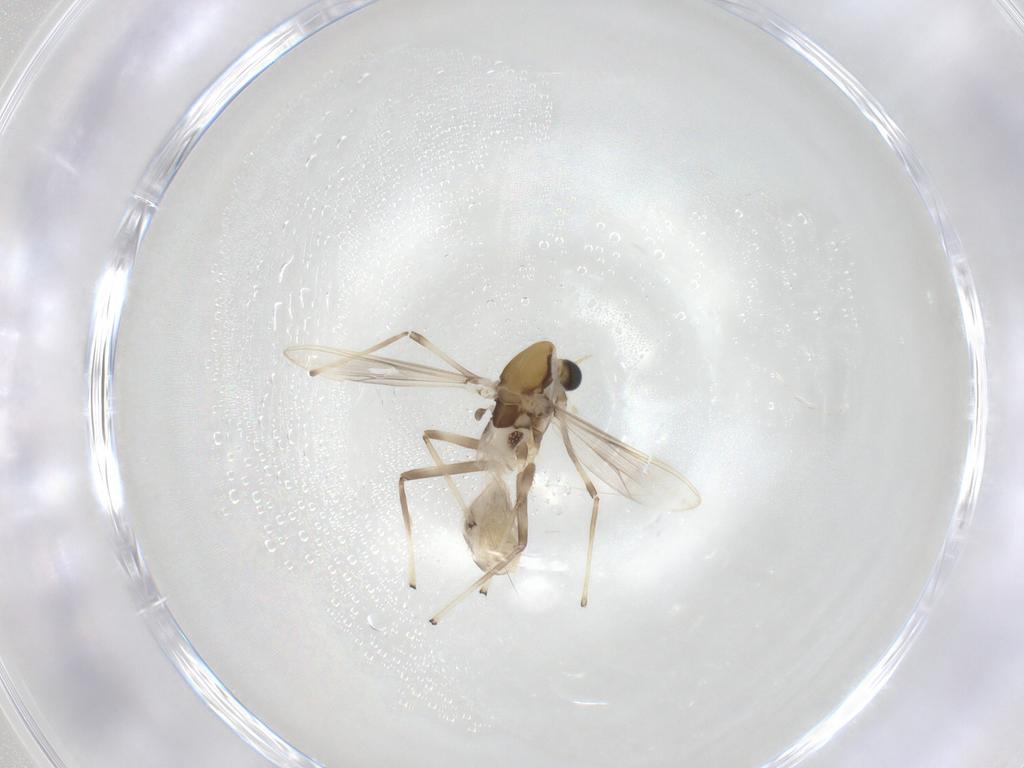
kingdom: Animalia
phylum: Arthropoda
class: Insecta
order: Diptera
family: Chironomidae
